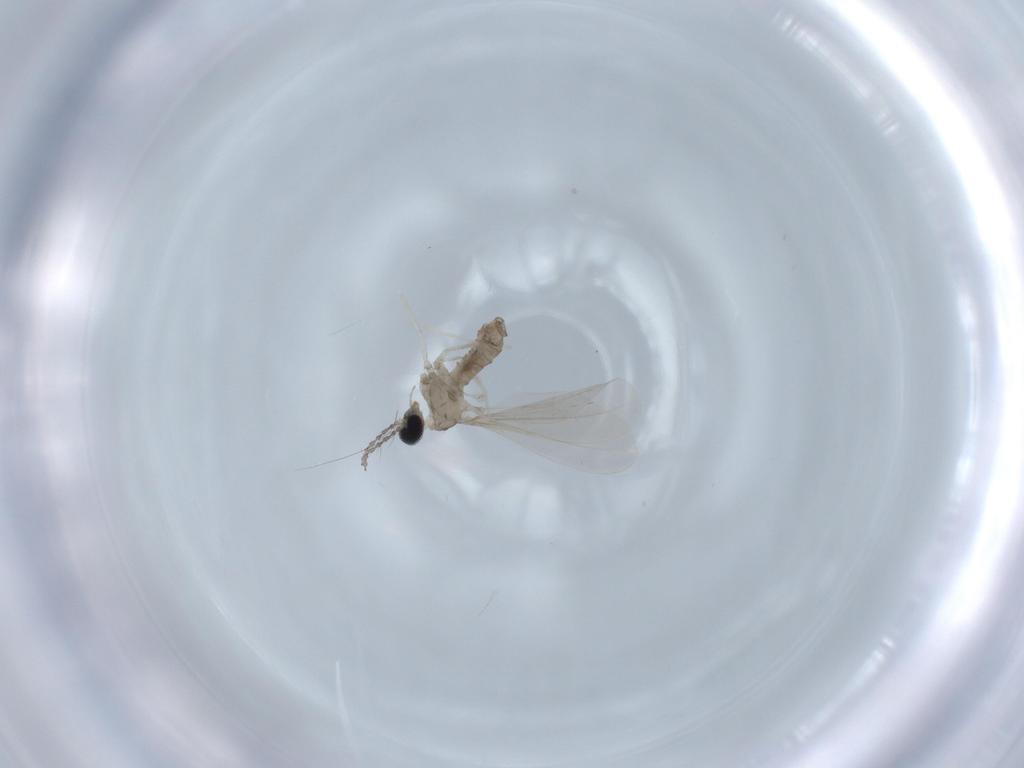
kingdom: Animalia
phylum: Arthropoda
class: Insecta
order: Diptera
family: Cecidomyiidae
